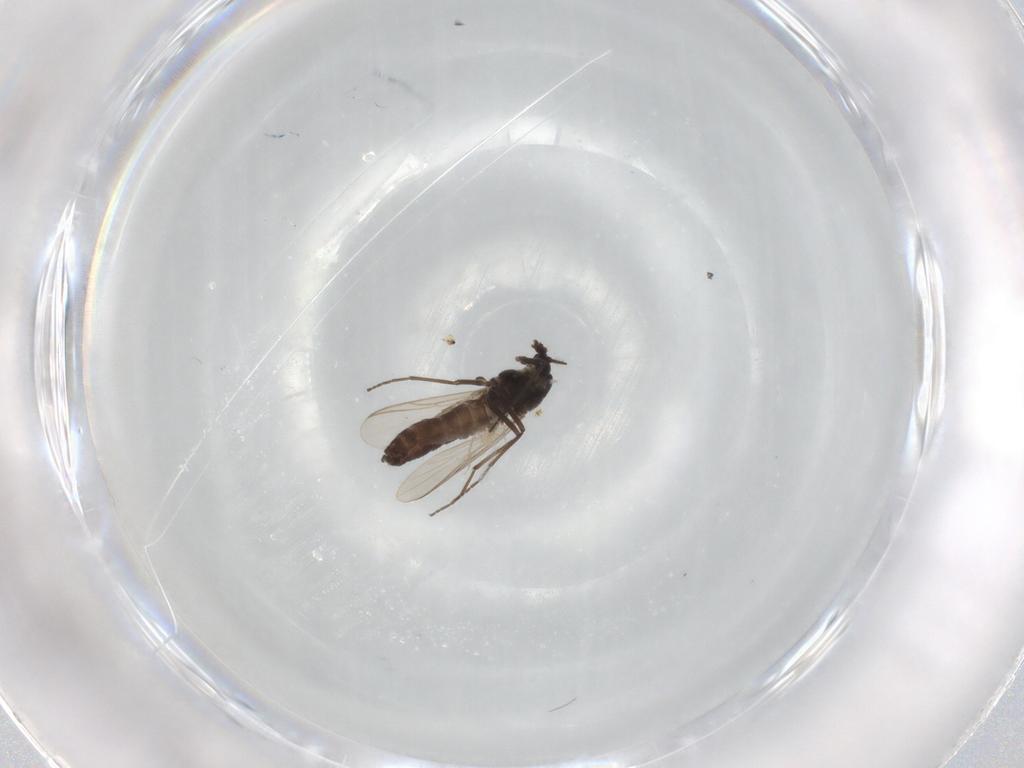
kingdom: Animalia
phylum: Arthropoda
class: Insecta
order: Diptera
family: Chironomidae
